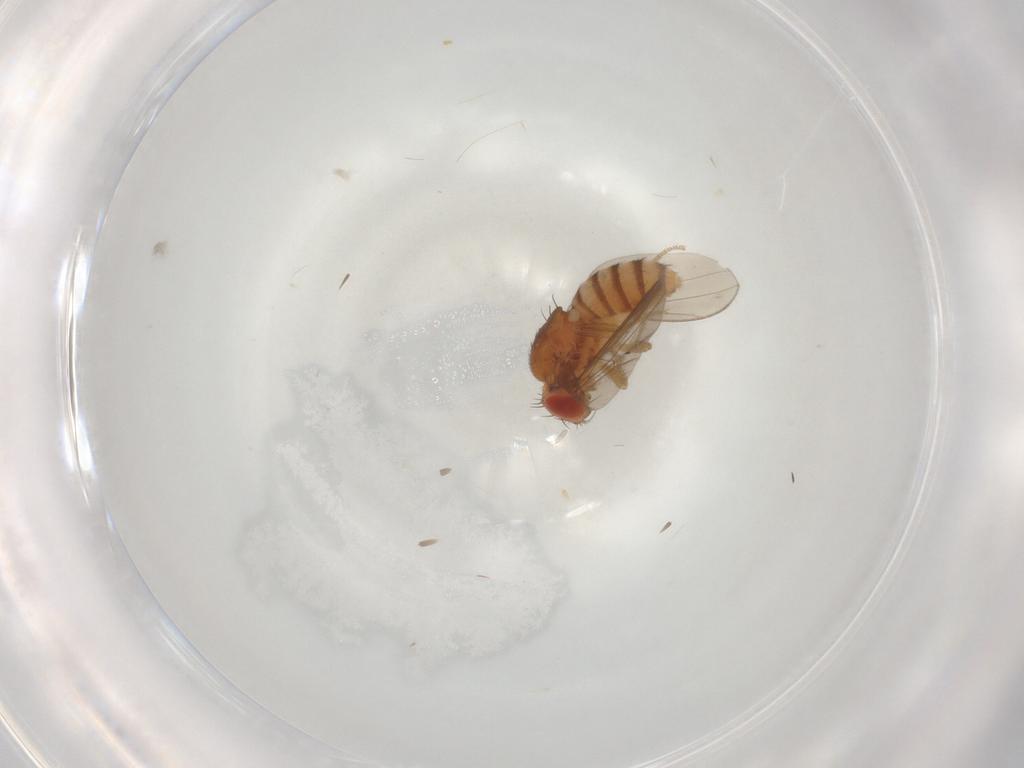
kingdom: Animalia
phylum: Arthropoda
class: Insecta
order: Diptera
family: Drosophilidae
